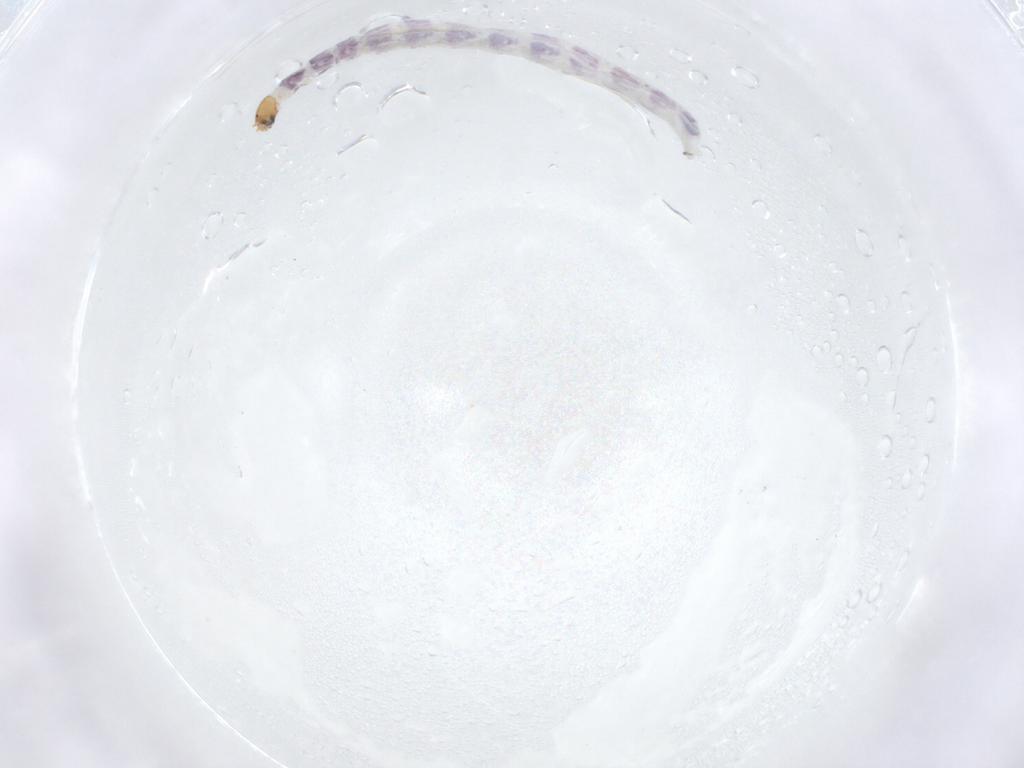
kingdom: Animalia
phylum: Arthropoda
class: Insecta
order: Diptera
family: Chironomidae
